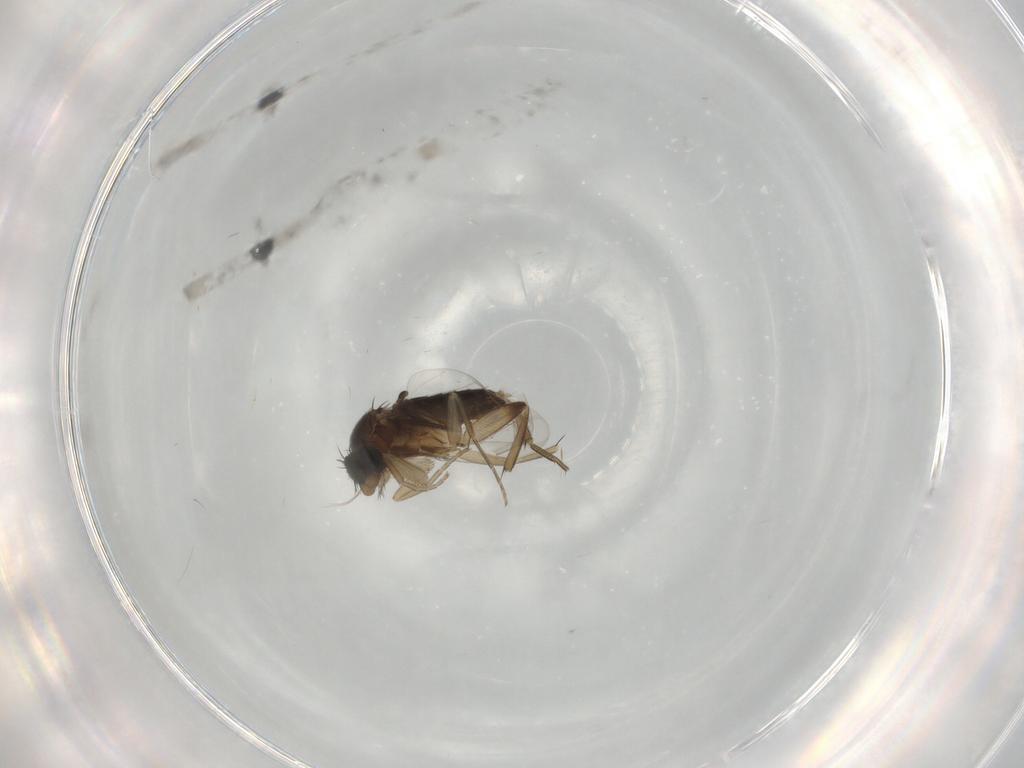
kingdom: Animalia
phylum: Arthropoda
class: Insecta
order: Diptera
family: Phoridae
